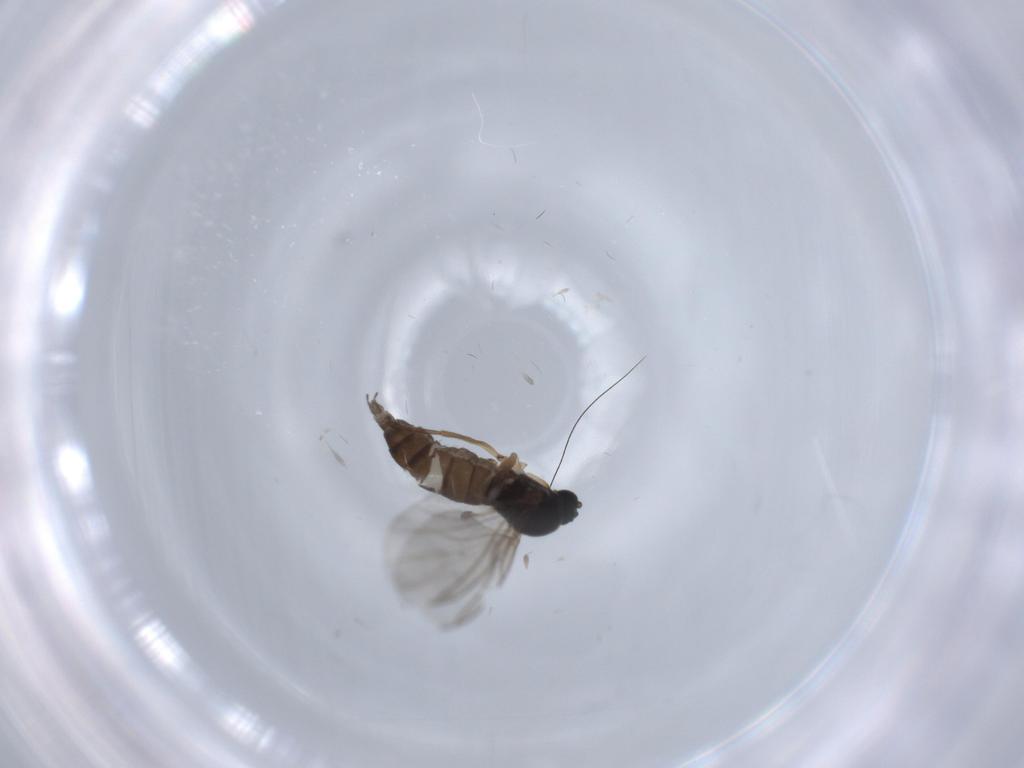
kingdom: Animalia
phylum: Arthropoda
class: Insecta
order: Diptera
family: Sciaridae
